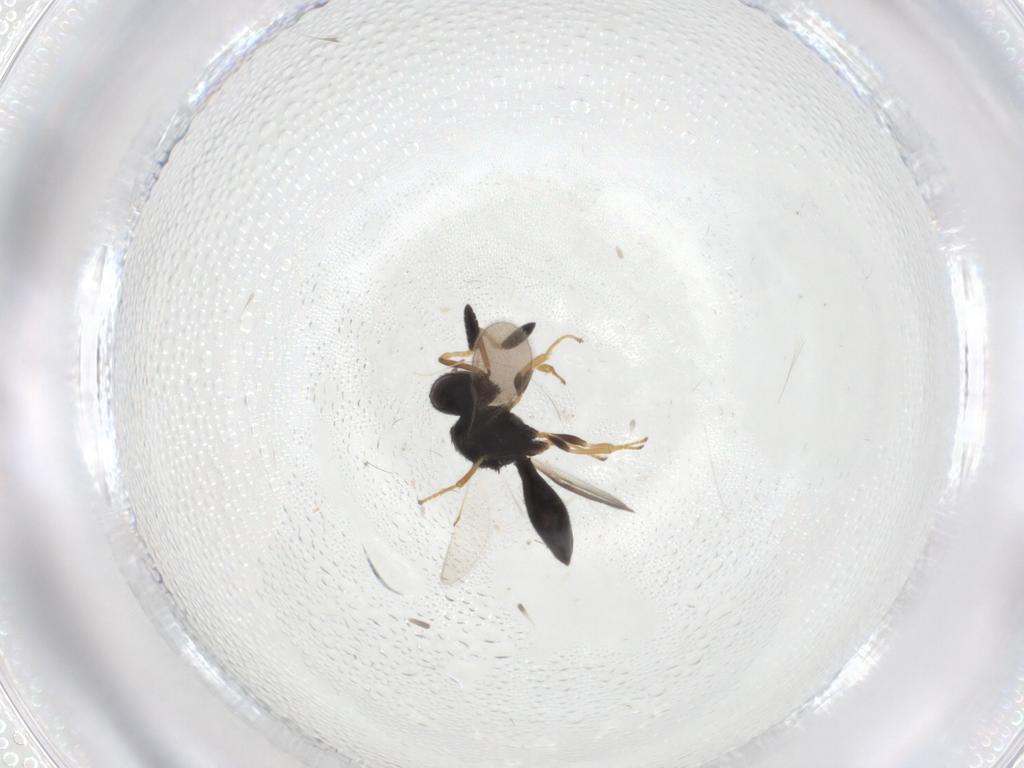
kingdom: Animalia
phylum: Arthropoda
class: Insecta
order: Hymenoptera
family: Scelionidae
